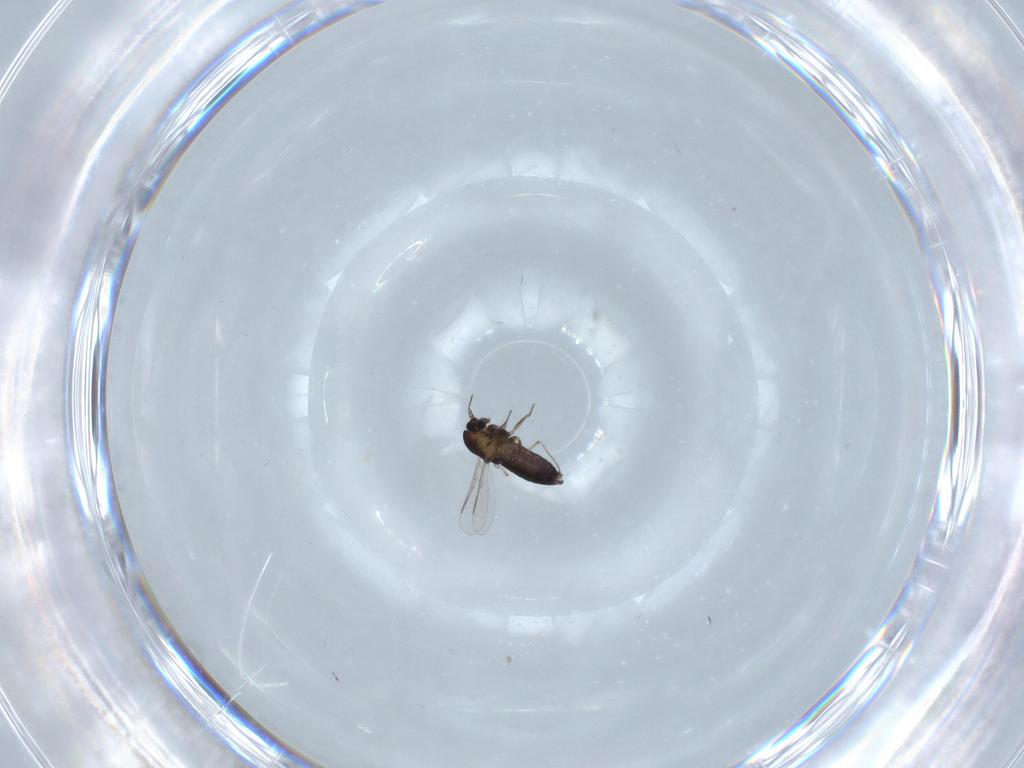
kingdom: Animalia
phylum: Arthropoda
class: Insecta
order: Diptera
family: Chironomidae
